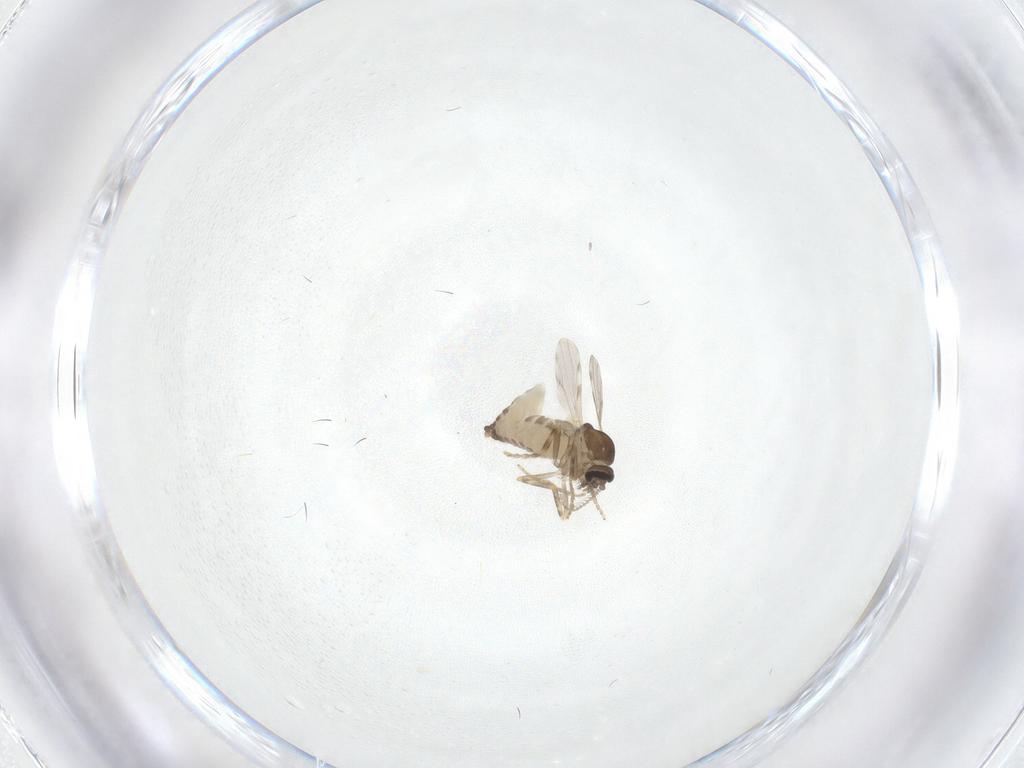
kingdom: Animalia
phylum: Arthropoda
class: Insecta
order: Diptera
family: Ceratopogonidae
